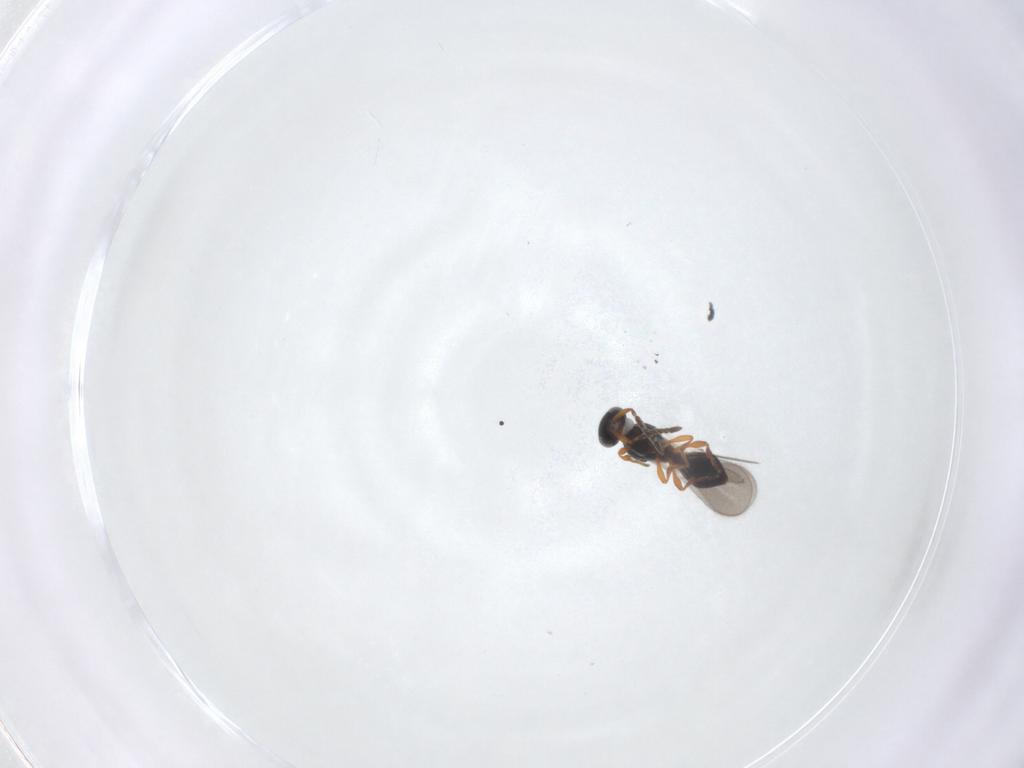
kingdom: Animalia
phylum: Arthropoda
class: Insecta
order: Hymenoptera
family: Platygastridae
